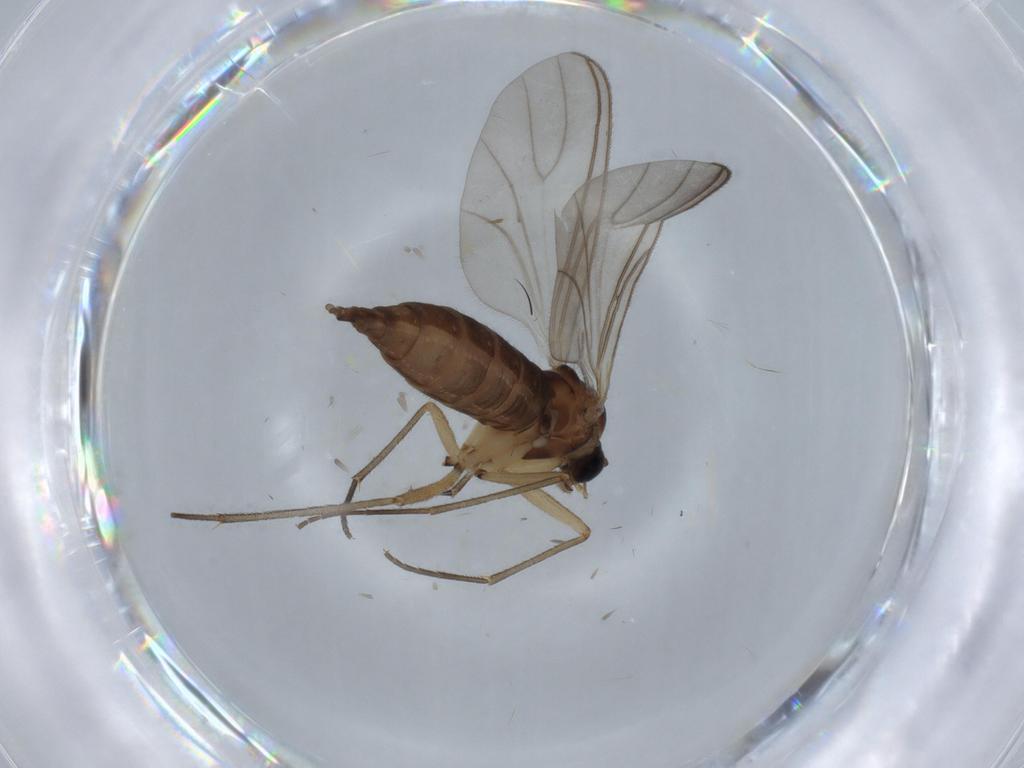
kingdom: Animalia
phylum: Arthropoda
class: Insecta
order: Diptera
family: Sciaridae
